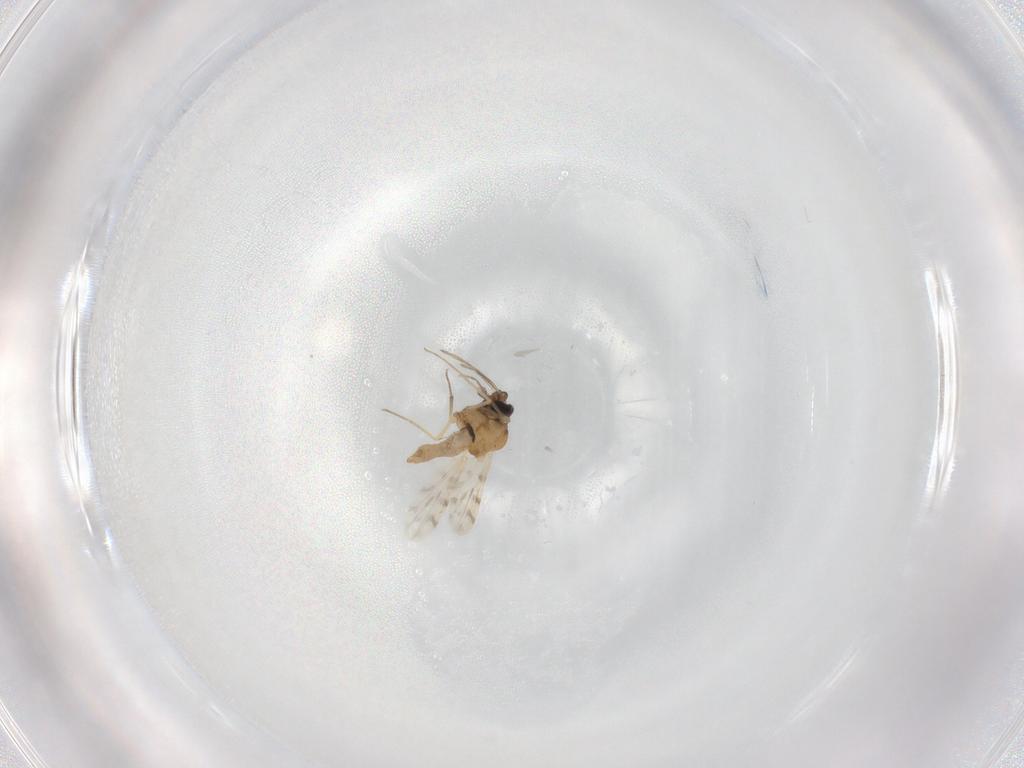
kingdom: Animalia
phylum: Arthropoda
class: Insecta
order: Diptera
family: Ceratopogonidae
